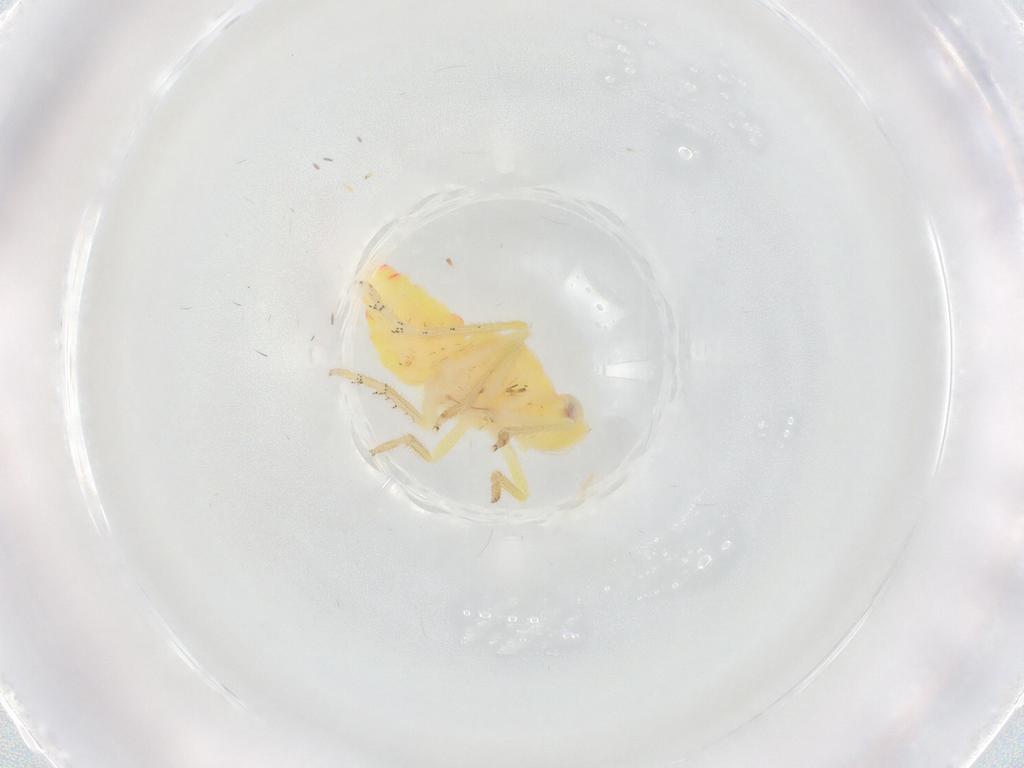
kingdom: Animalia
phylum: Arthropoda
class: Insecta
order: Hemiptera
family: Tropiduchidae
